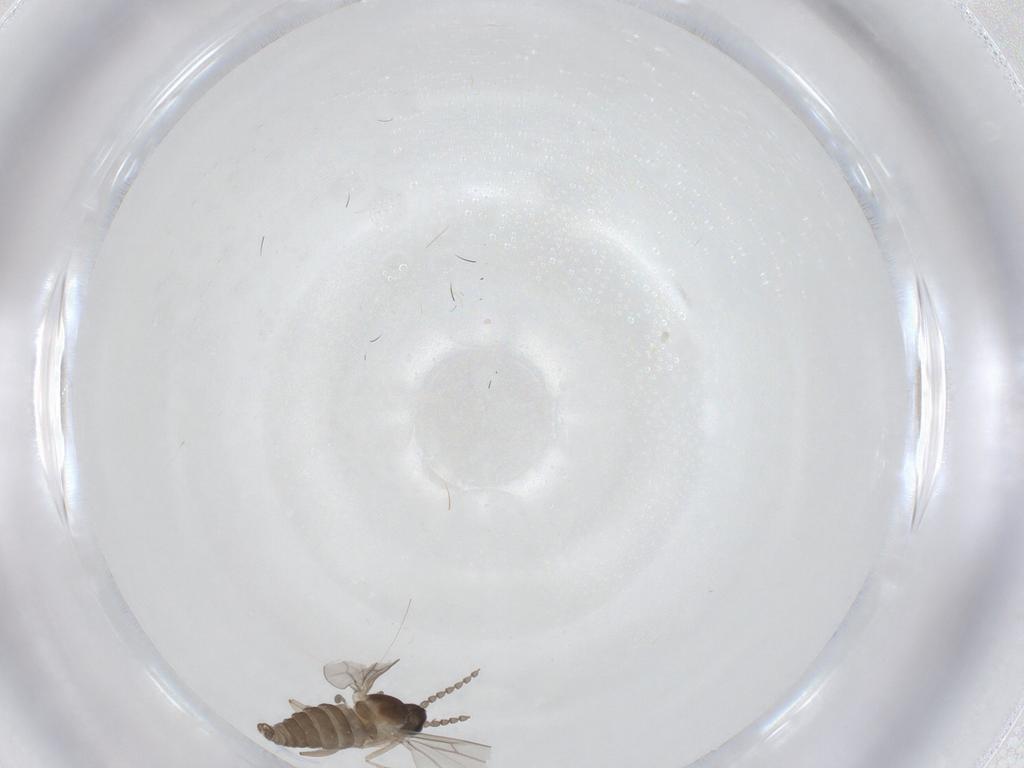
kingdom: Animalia
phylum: Arthropoda
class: Insecta
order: Diptera
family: Cecidomyiidae
